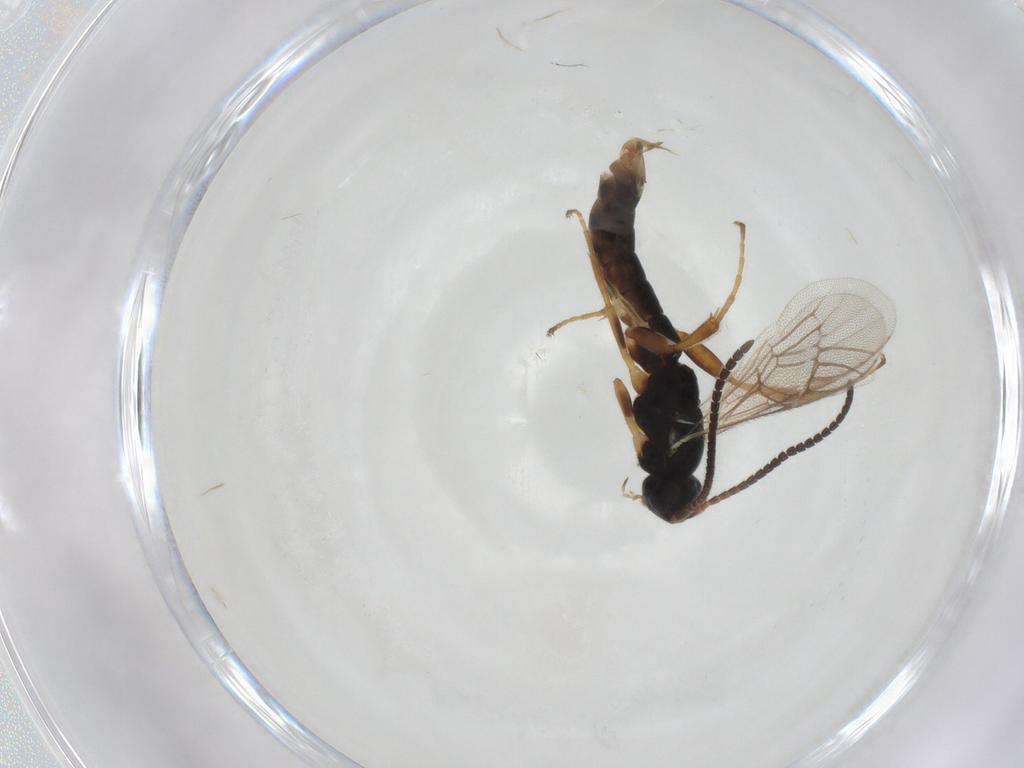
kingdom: Animalia
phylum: Arthropoda
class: Insecta
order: Hymenoptera
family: Ichneumonidae
